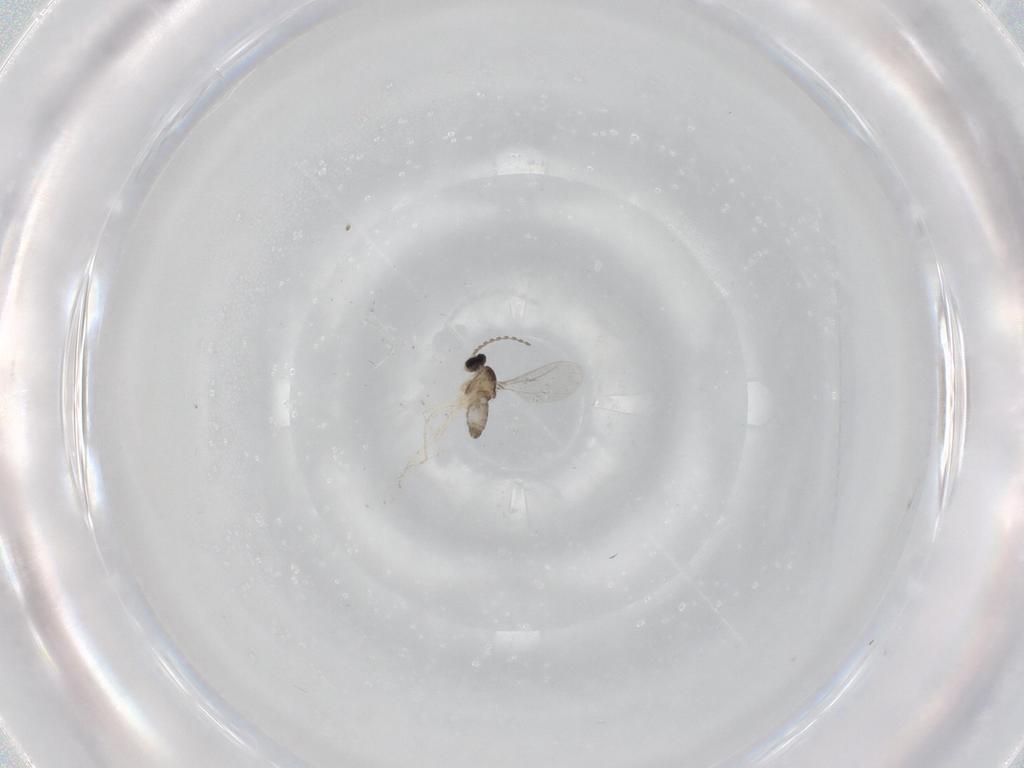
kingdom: Animalia
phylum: Arthropoda
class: Insecta
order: Diptera
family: Cecidomyiidae
